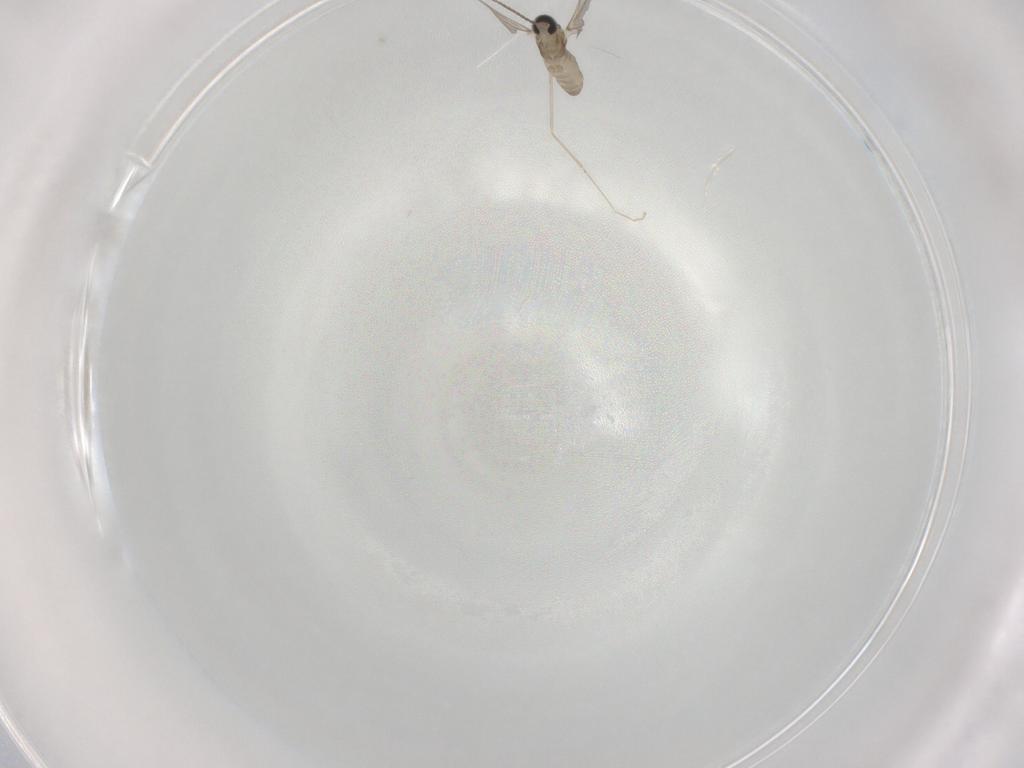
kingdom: Animalia
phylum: Arthropoda
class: Insecta
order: Diptera
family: Cecidomyiidae
